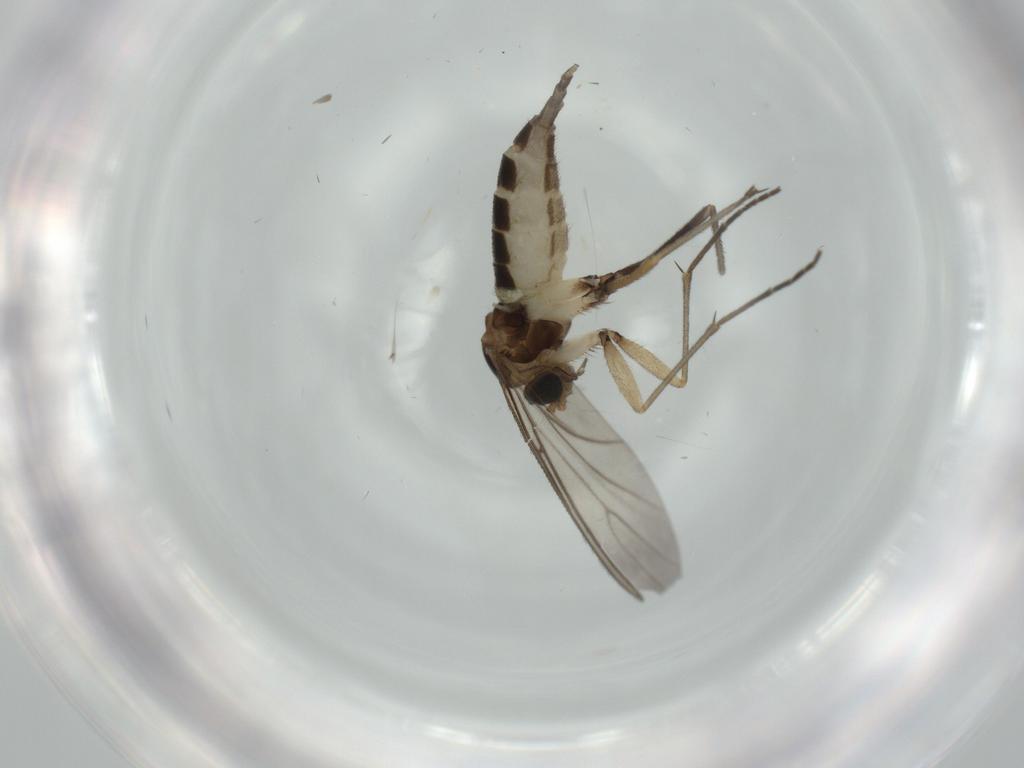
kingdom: Animalia
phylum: Arthropoda
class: Insecta
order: Diptera
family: Sciaridae
